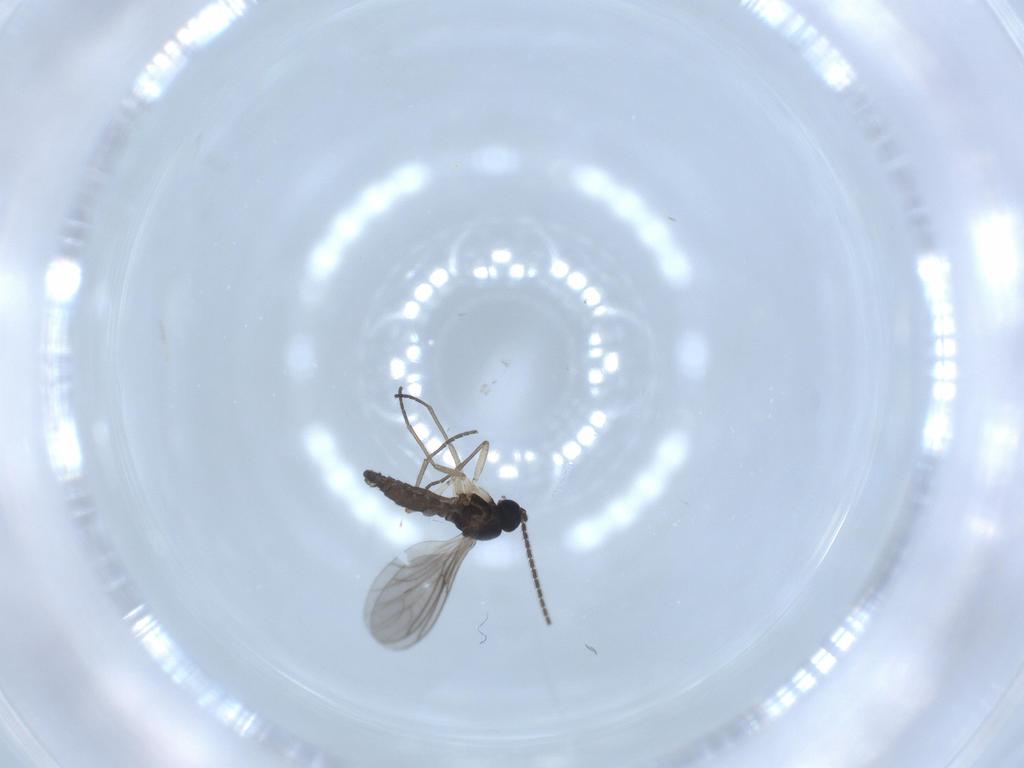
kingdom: Animalia
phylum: Arthropoda
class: Insecta
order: Diptera
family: Sciaridae
